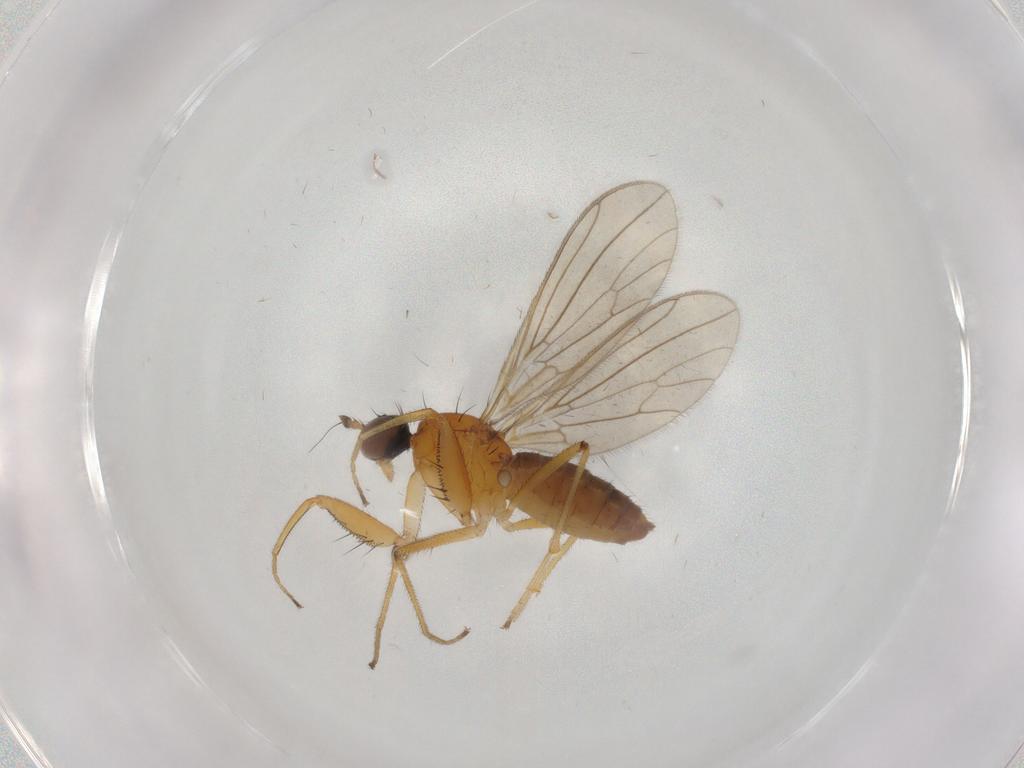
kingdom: Animalia
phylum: Arthropoda
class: Insecta
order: Diptera
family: Empididae
